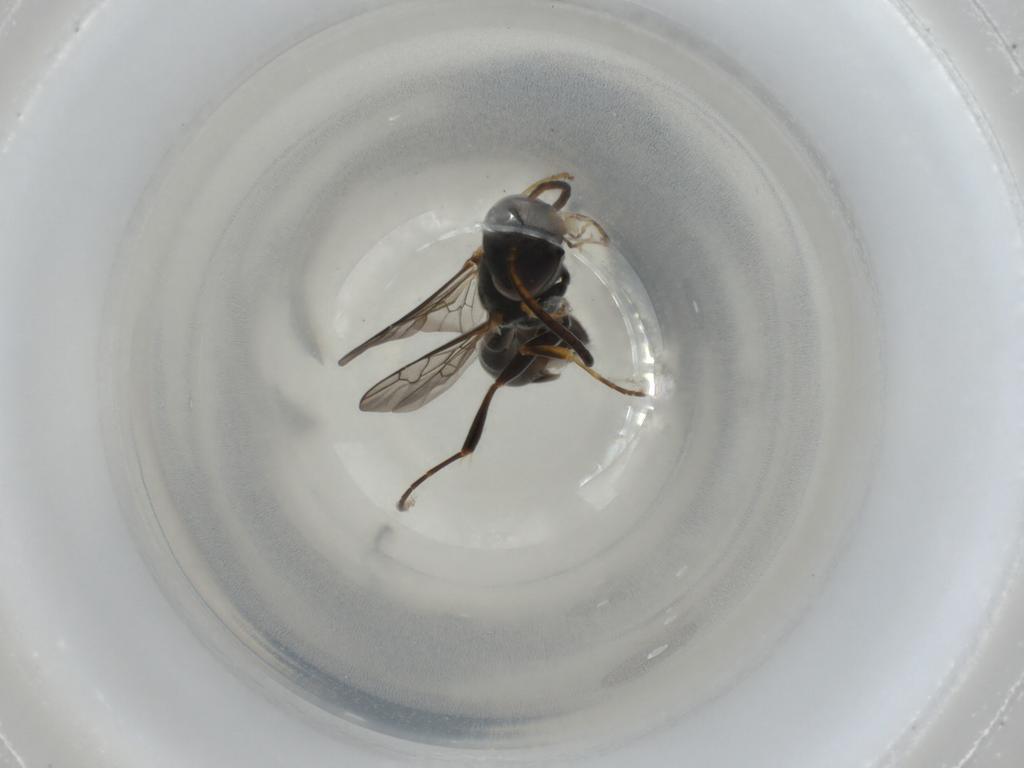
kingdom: Animalia
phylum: Arthropoda
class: Insecta
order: Hymenoptera
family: Crabronidae
